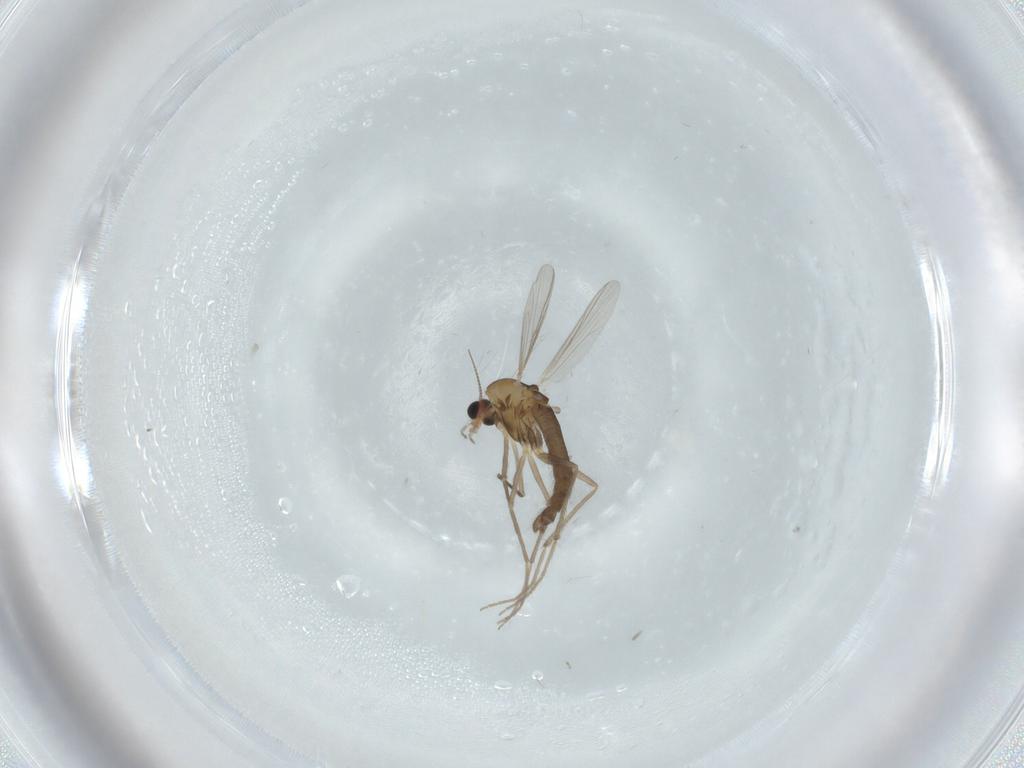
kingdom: Animalia
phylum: Arthropoda
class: Insecta
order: Diptera
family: Chironomidae
